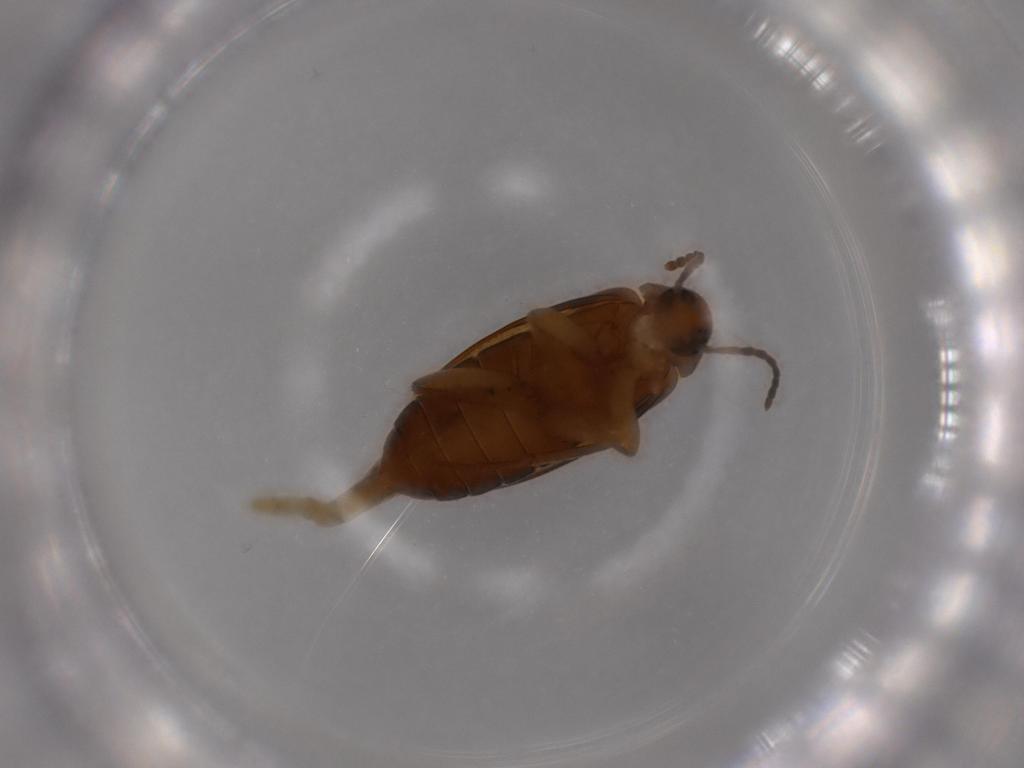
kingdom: Animalia
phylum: Arthropoda
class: Insecta
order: Coleoptera
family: Scraptiidae
